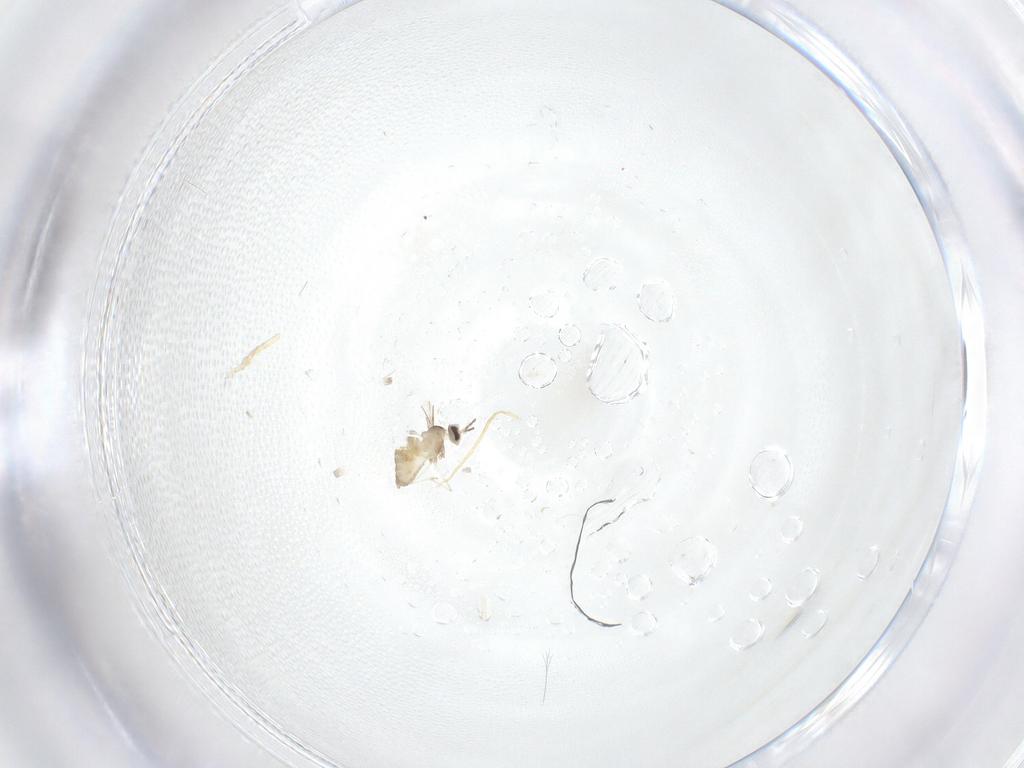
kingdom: Animalia
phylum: Arthropoda
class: Insecta
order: Diptera
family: Cecidomyiidae
